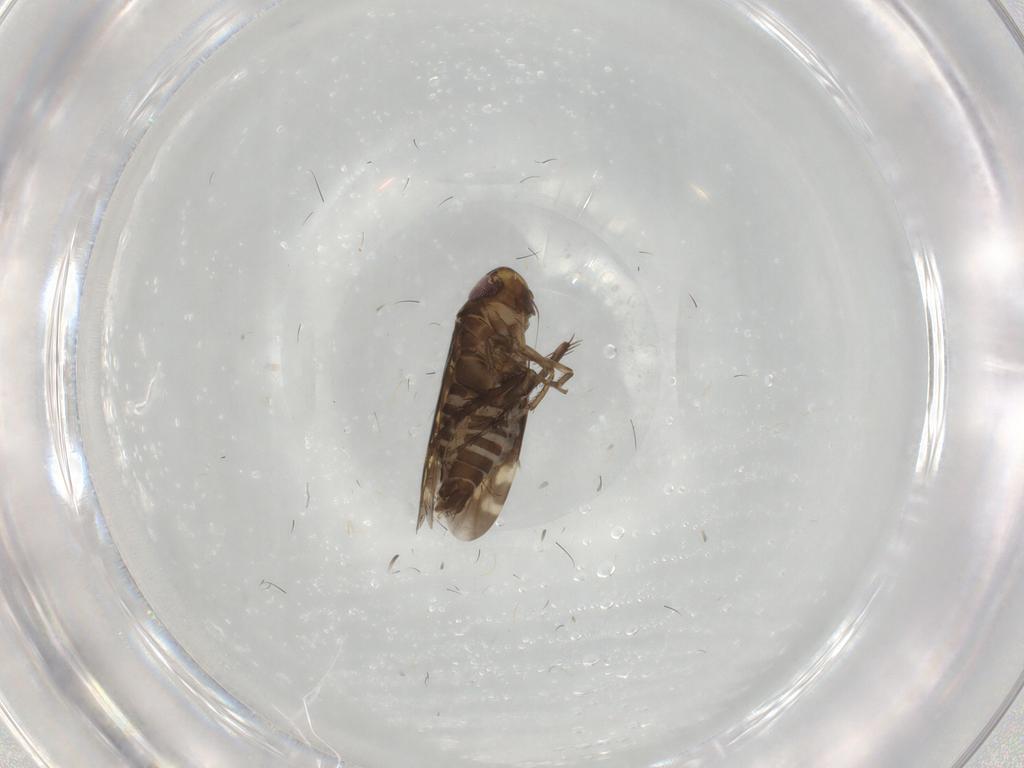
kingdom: Animalia
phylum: Arthropoda
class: Insecta
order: Hemiptera
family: Cicadellidae
